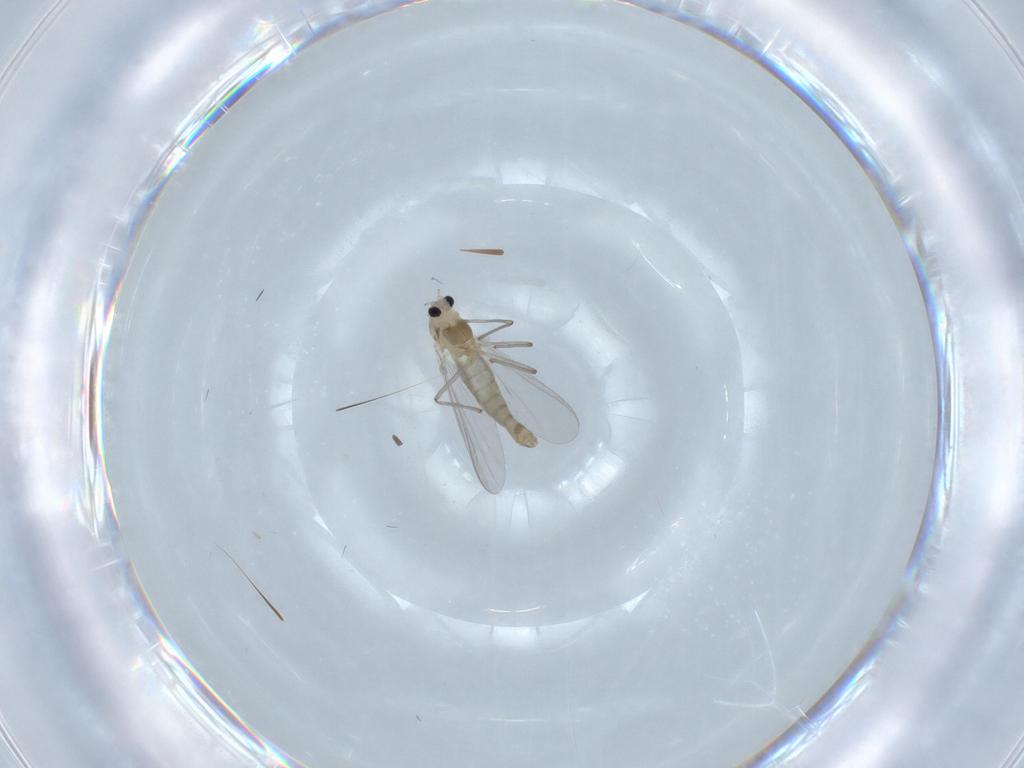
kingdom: Animalia
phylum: Arthropoda
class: Insecta
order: Diptera
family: Chironomidae
